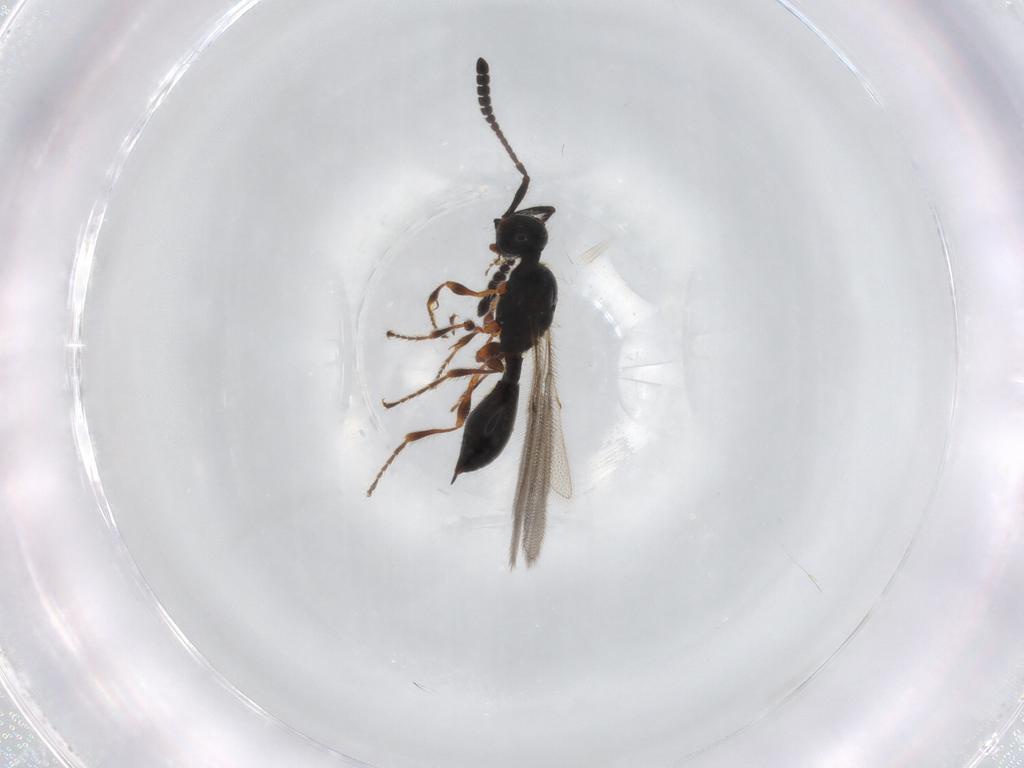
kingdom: Animalia
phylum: Arthropoda
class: Insecta
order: Hymenoptera
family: Diapriidae
